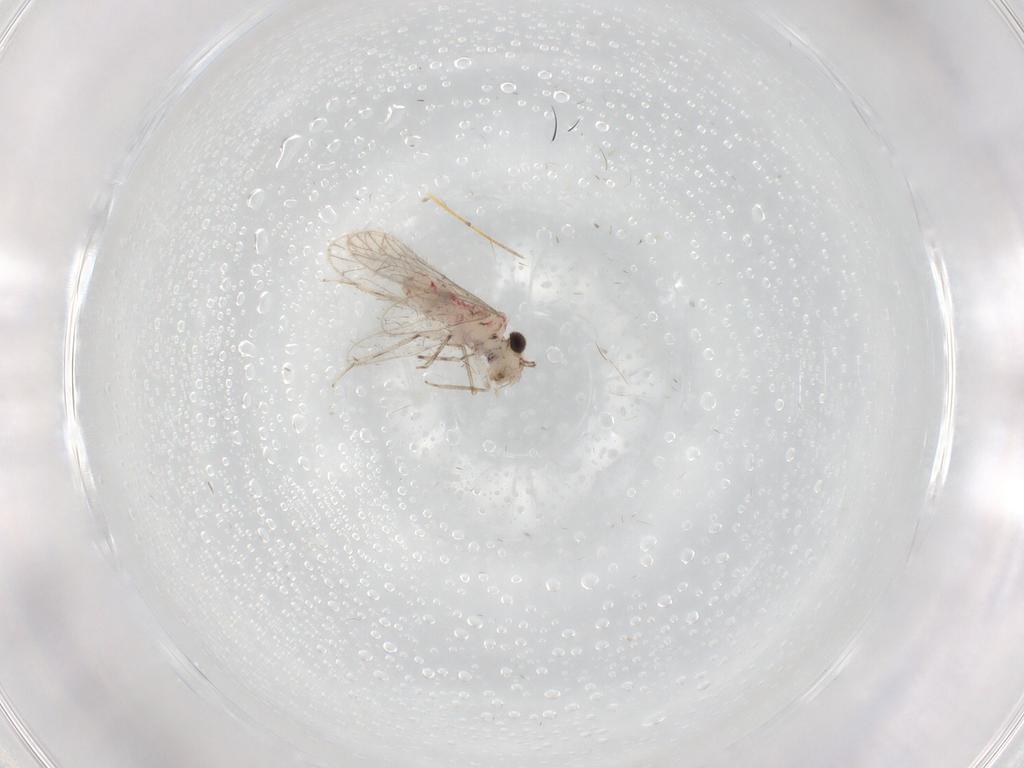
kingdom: Animalia
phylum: Arthropoda
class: Insecta
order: Psocodea
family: Caeciliusidae
